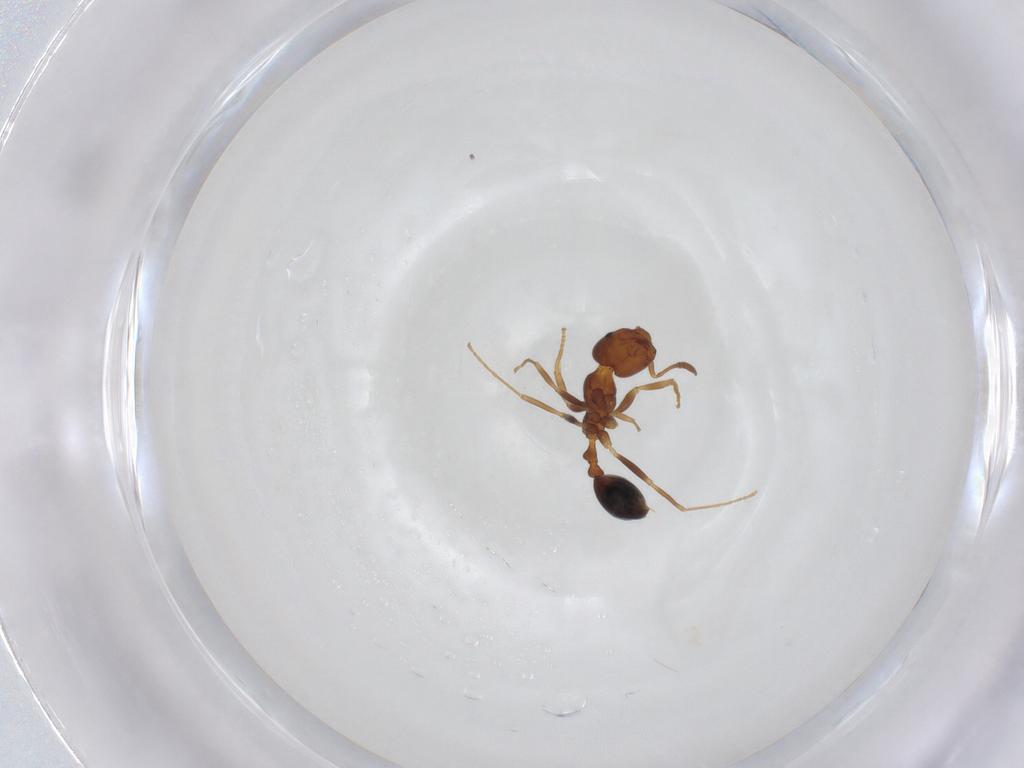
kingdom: Animalia
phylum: Arthropoda
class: Insecta
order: Hymenoptera
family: Formicidae
